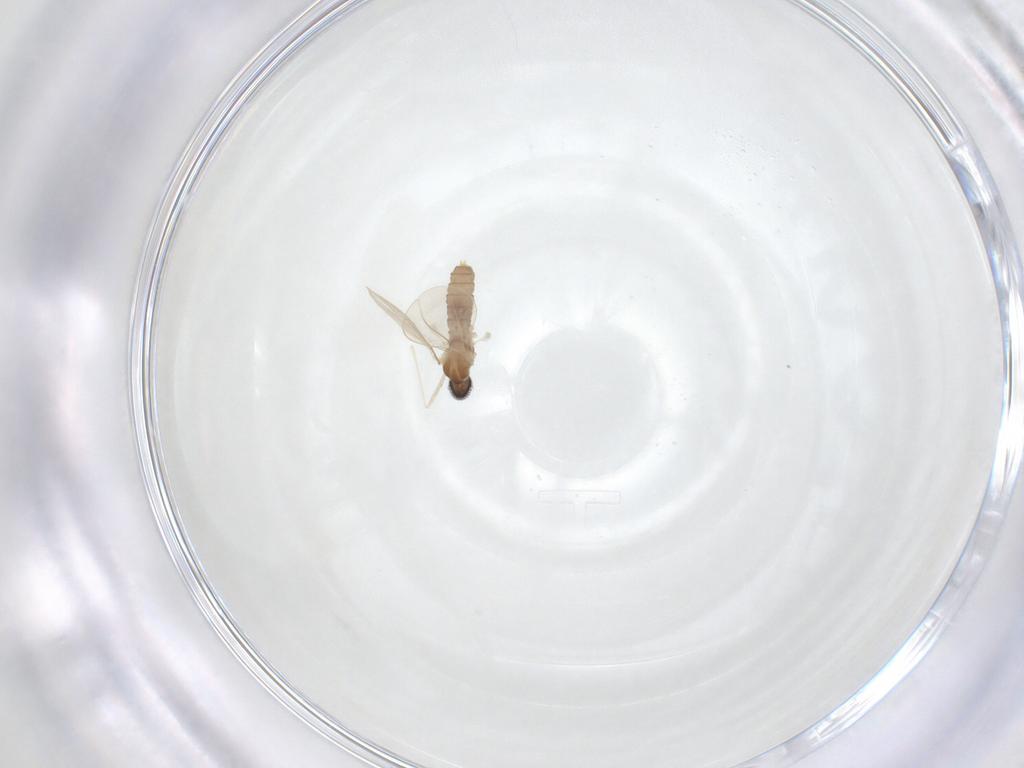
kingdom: Animalia
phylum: Arthropoda
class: Insecta
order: Diptera
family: Cecidomyiidae
